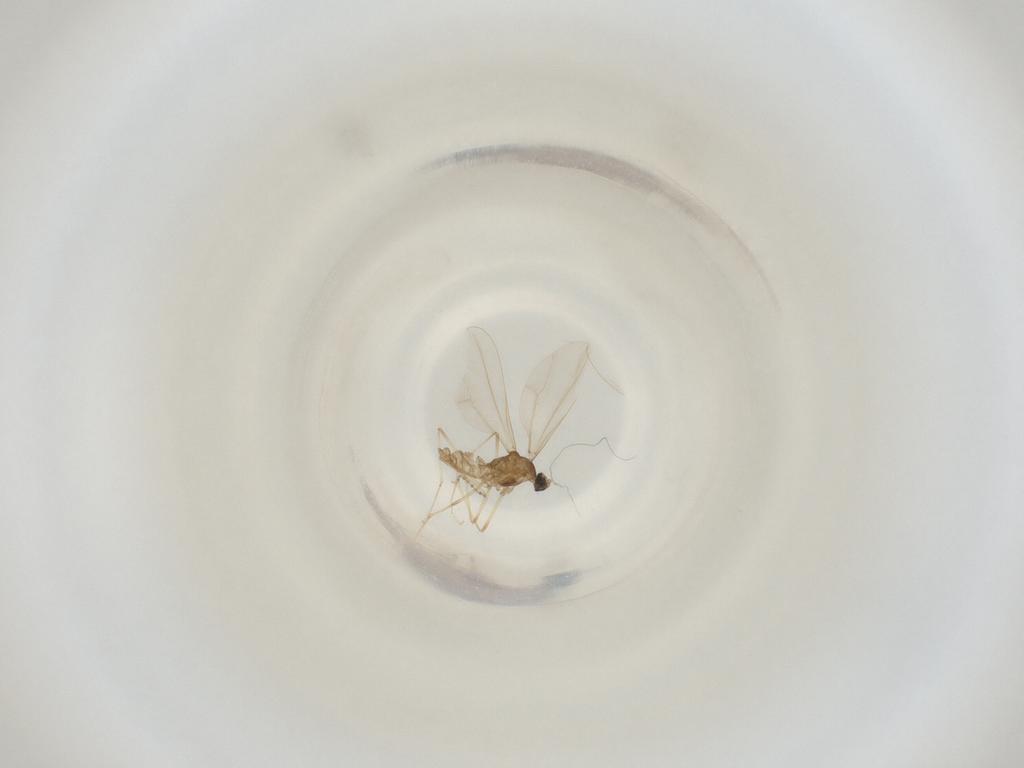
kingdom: Animalia
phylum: Arthropoda
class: Insecta
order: Diptera
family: Cecidomyiidae
